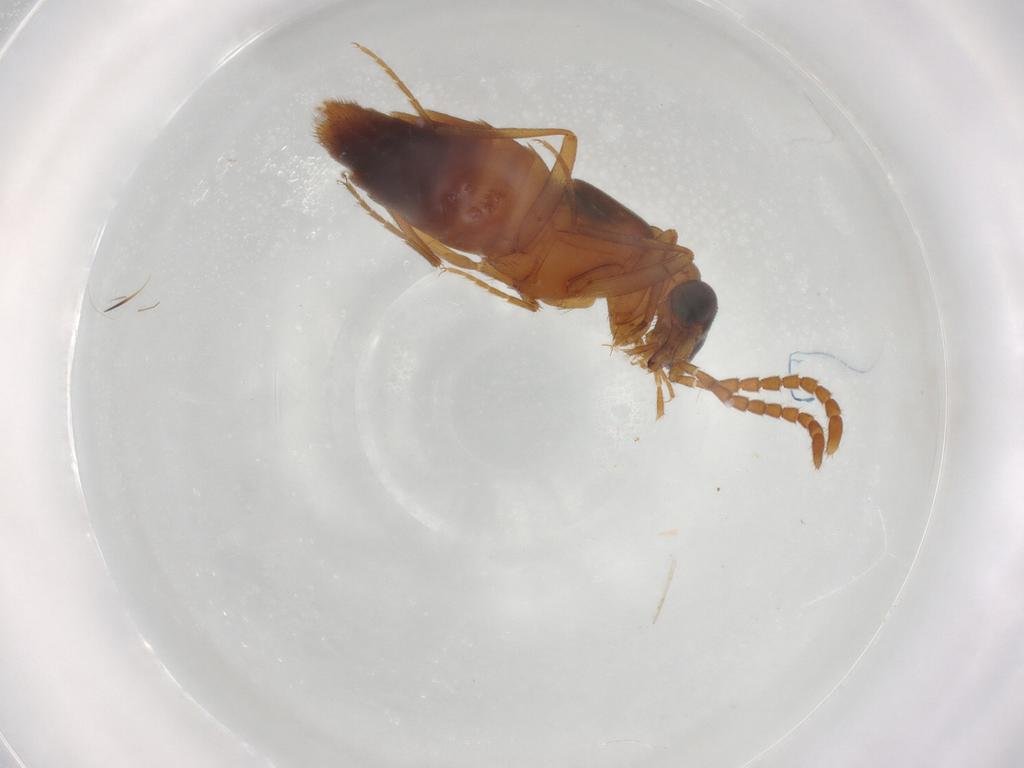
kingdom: Animalia
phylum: Arthropoda
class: Insecta
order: Coleoptera
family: Staphylinidae
